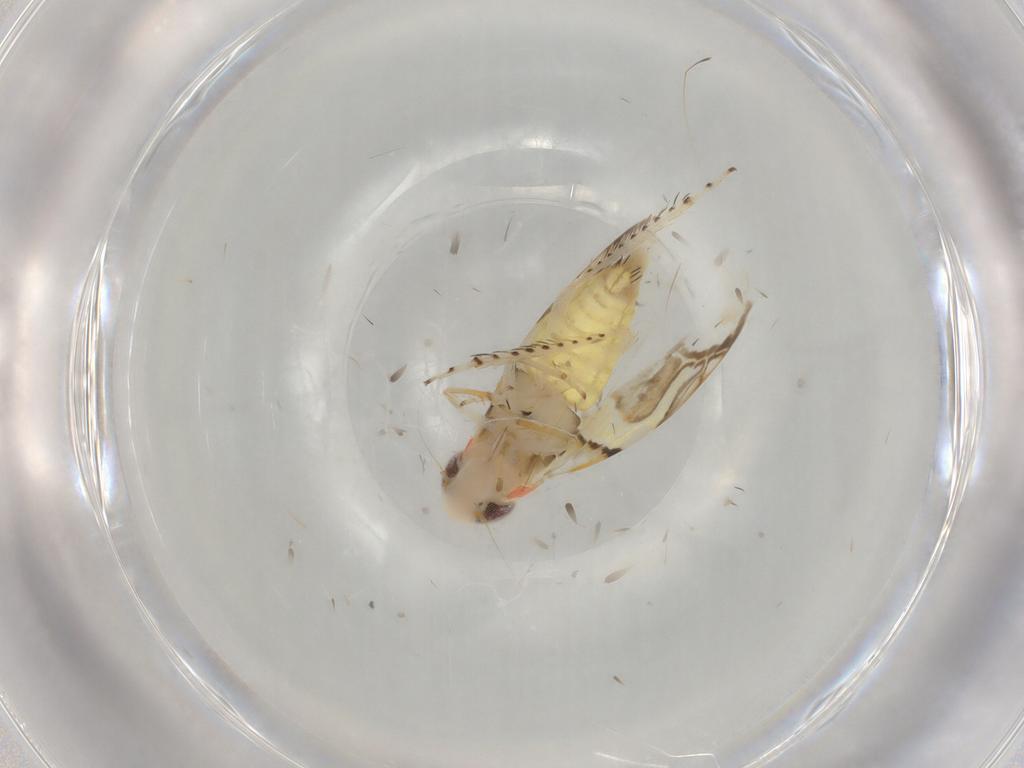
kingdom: Animalia
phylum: Arthropoda
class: Insecta
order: Hemiptera
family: Cicadellidae
